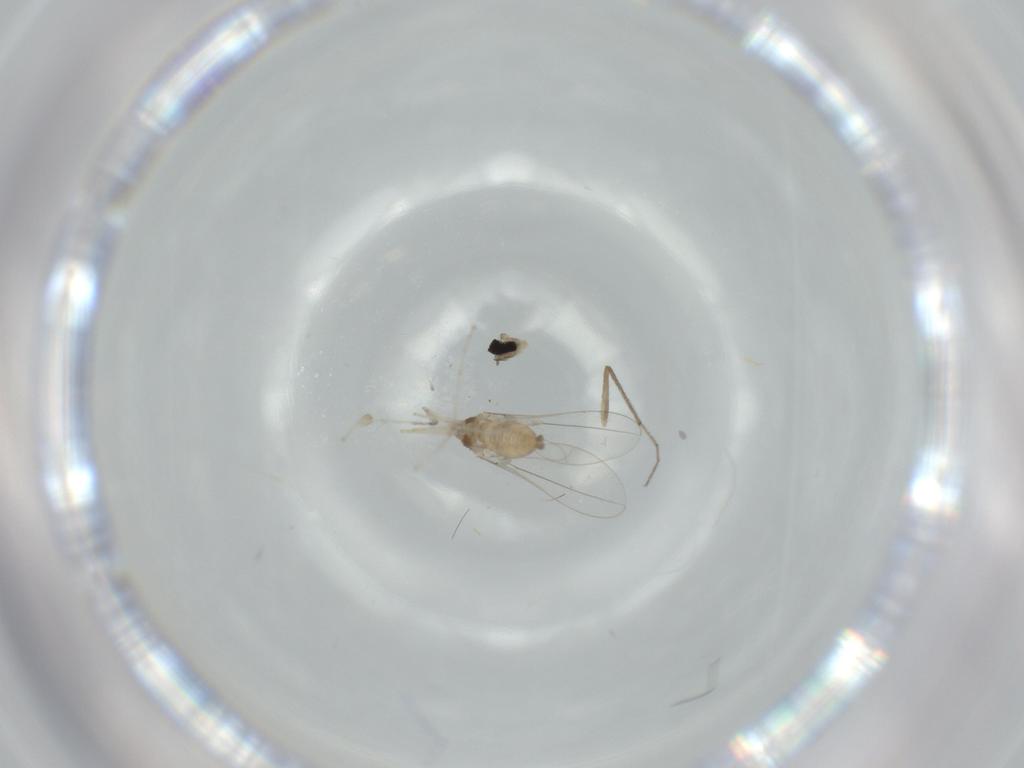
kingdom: Animalia
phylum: Arthropoda
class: Insecta
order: Diptera
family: Cecidomyiidae
